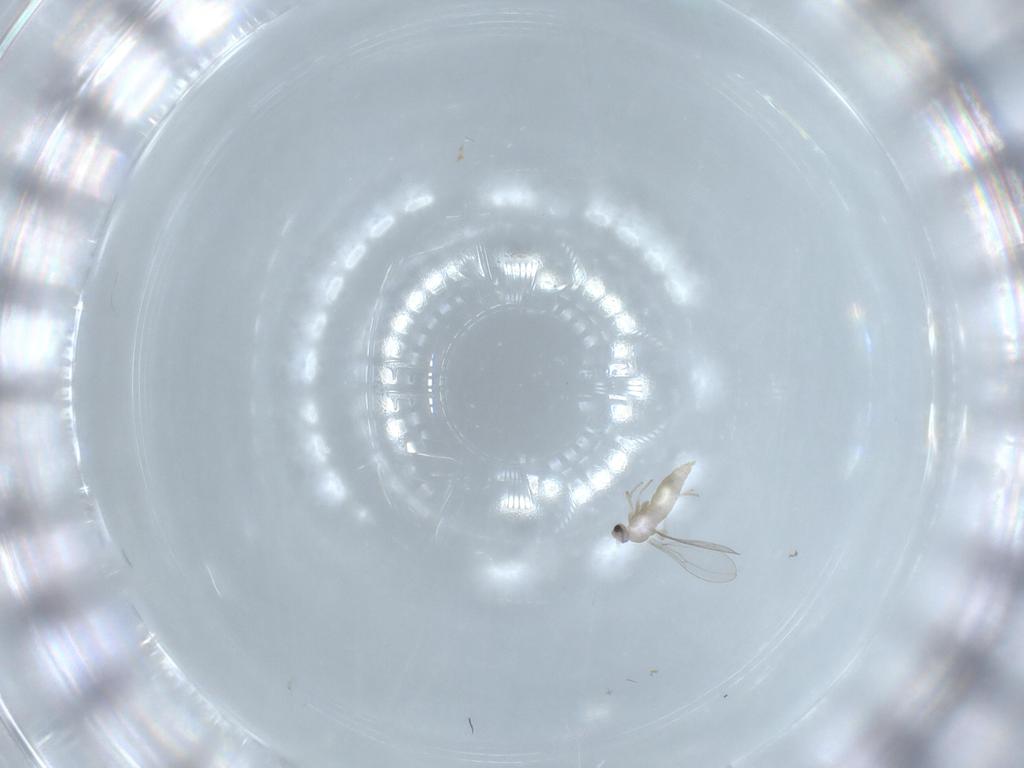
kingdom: Animalia
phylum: Arthropoda
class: Insecta
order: Diptera
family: Cecidomyiidae
